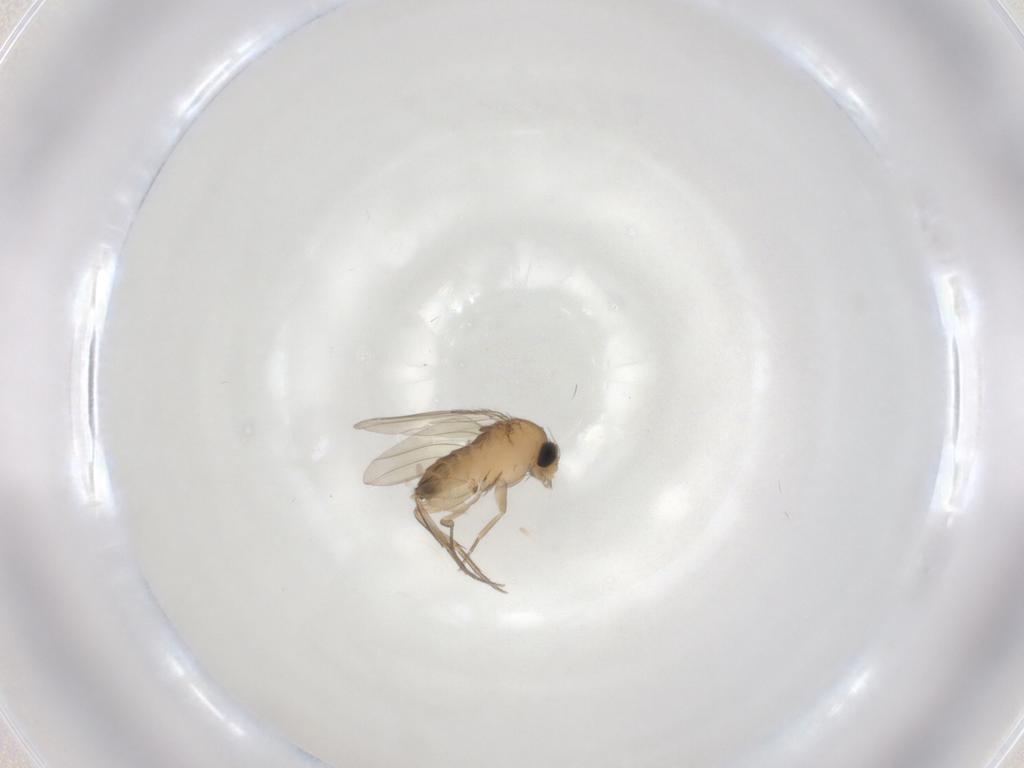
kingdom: Animalia
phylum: Arthropoda
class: Insecta
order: Diptera
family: Phoridae
